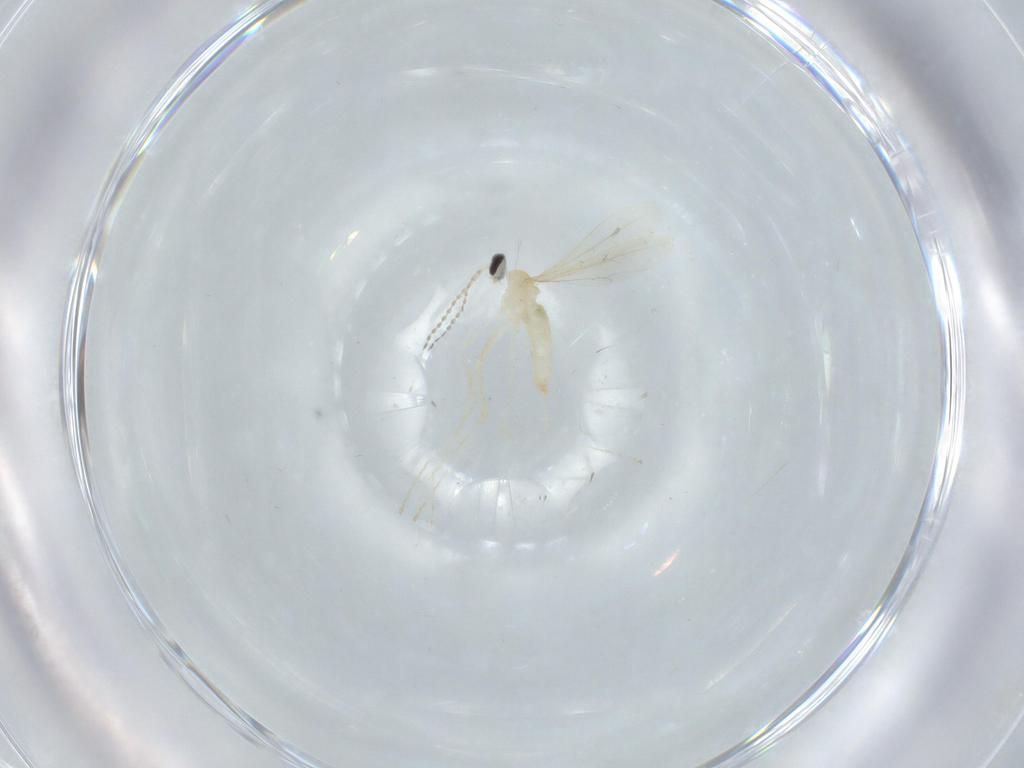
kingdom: Animalia
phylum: Arthropoda
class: Insecta
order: Diptera
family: Cecidomyiidae
